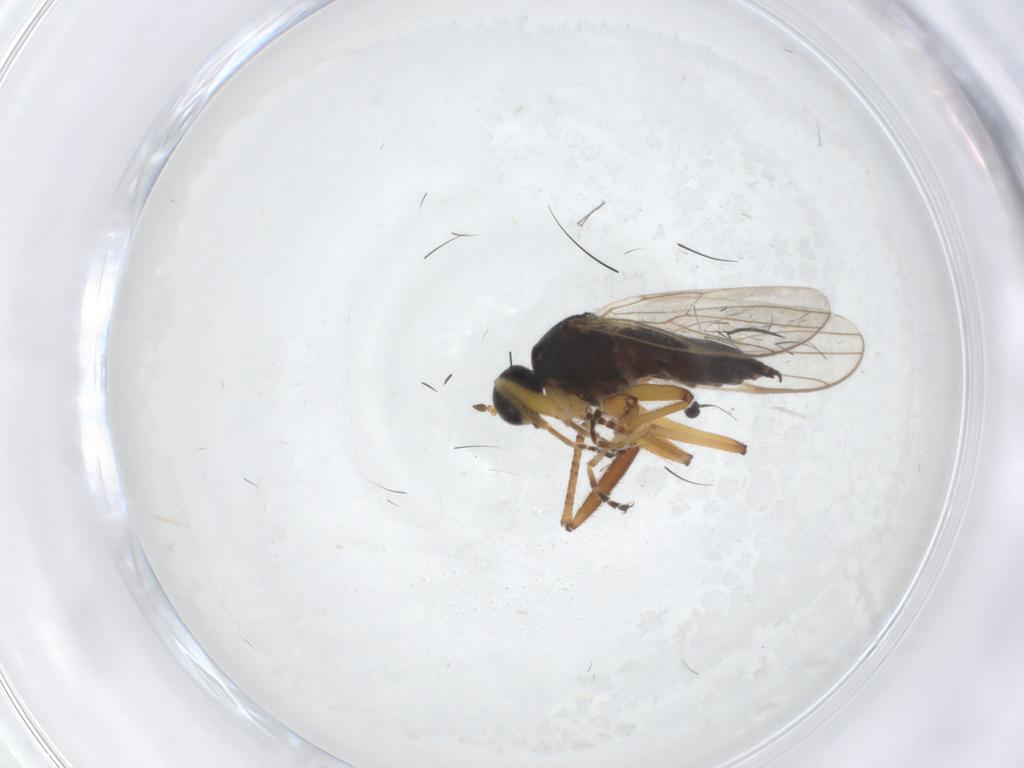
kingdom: Animalia
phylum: Arthropoda
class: Insecta
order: Diptera
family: Hybotidae
